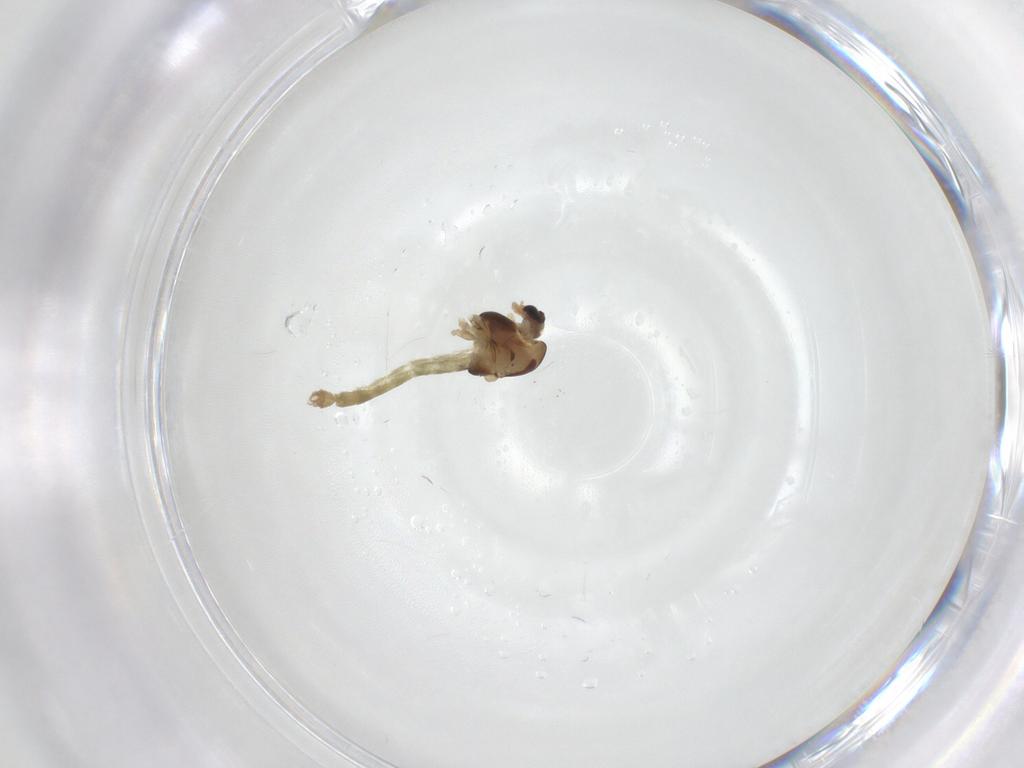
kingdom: Animalia
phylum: Arthropoda
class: Insecta
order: Diptera
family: Chironomidae
